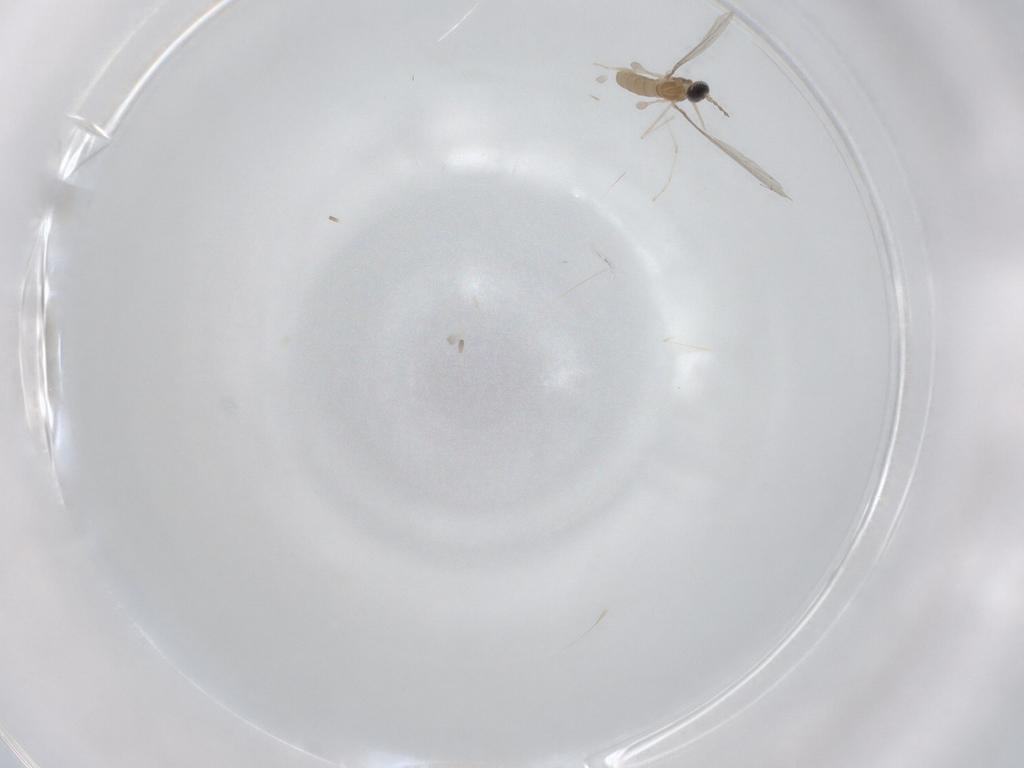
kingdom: Animalia
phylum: Arthropoda
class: Insecta
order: Diptera
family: Cecidomyiidae
